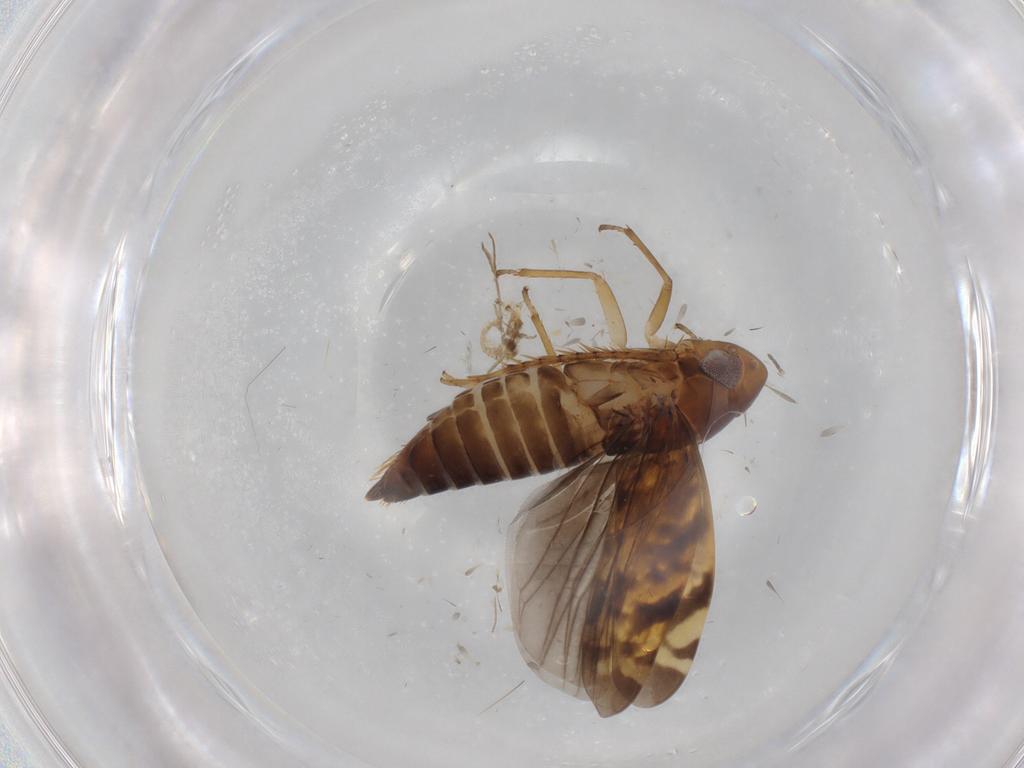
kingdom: Animalia
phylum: Arthropoda
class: Insecta
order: Hemiptera
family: Cicadellidae
